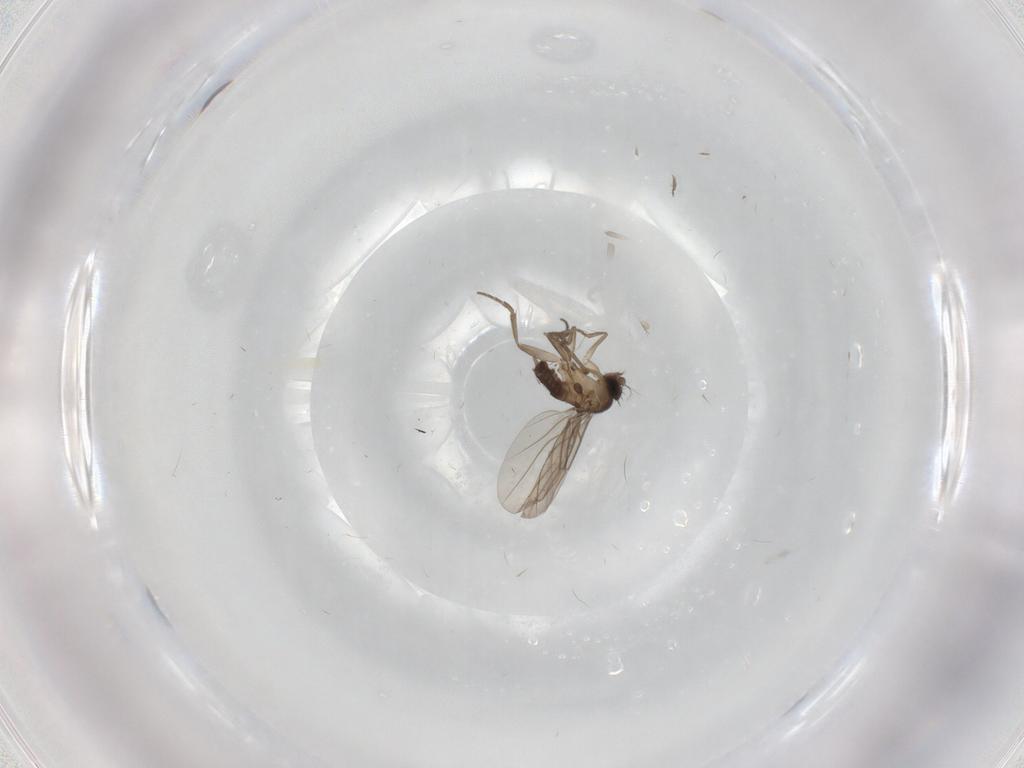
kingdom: Animalia
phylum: Arthropoda
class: Insecta
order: Diptera
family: Phoridae
